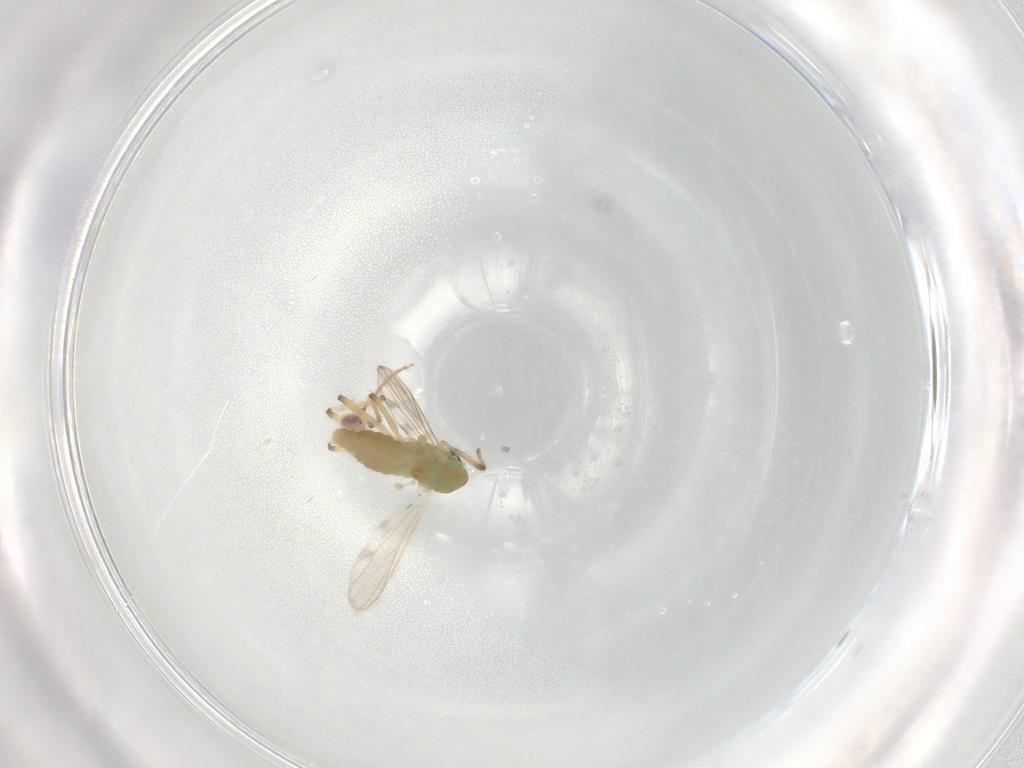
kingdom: Animalia
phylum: Arthropoda
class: Insecta
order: Diptera
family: Chironomidae
